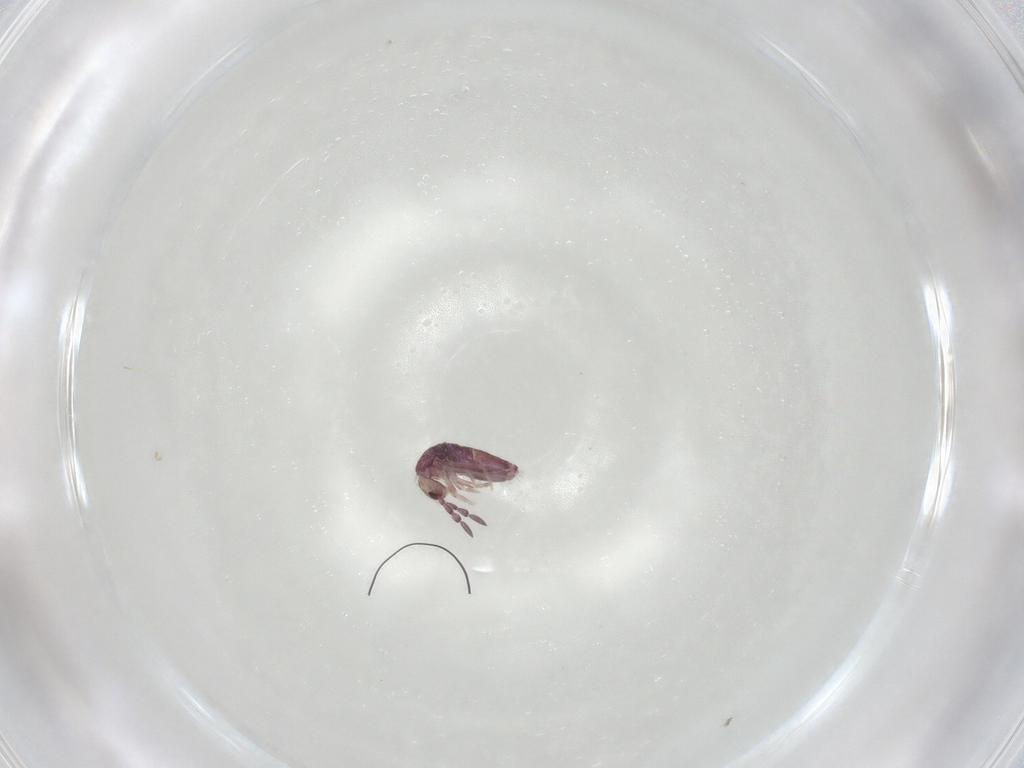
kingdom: Animalia
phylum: Arthropoda
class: Collembola
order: Entomobryomorpha
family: Entomobryidae
